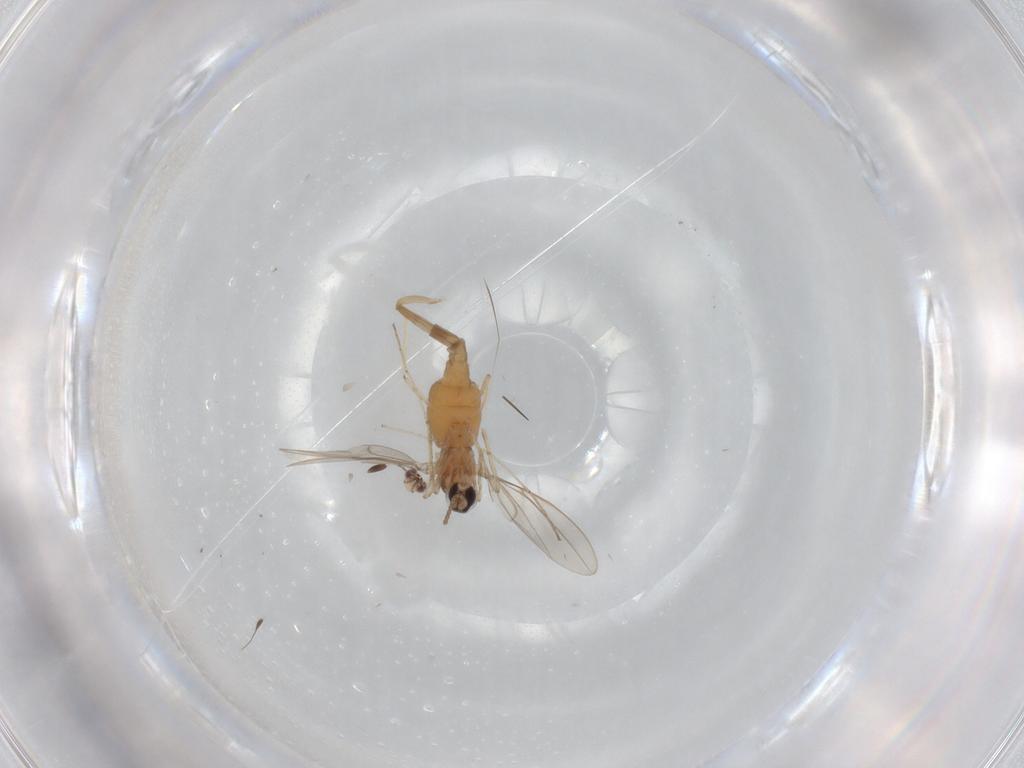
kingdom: Animalia
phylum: Arthropoda
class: Insecta
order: Diptera
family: Cecidomyiidae
